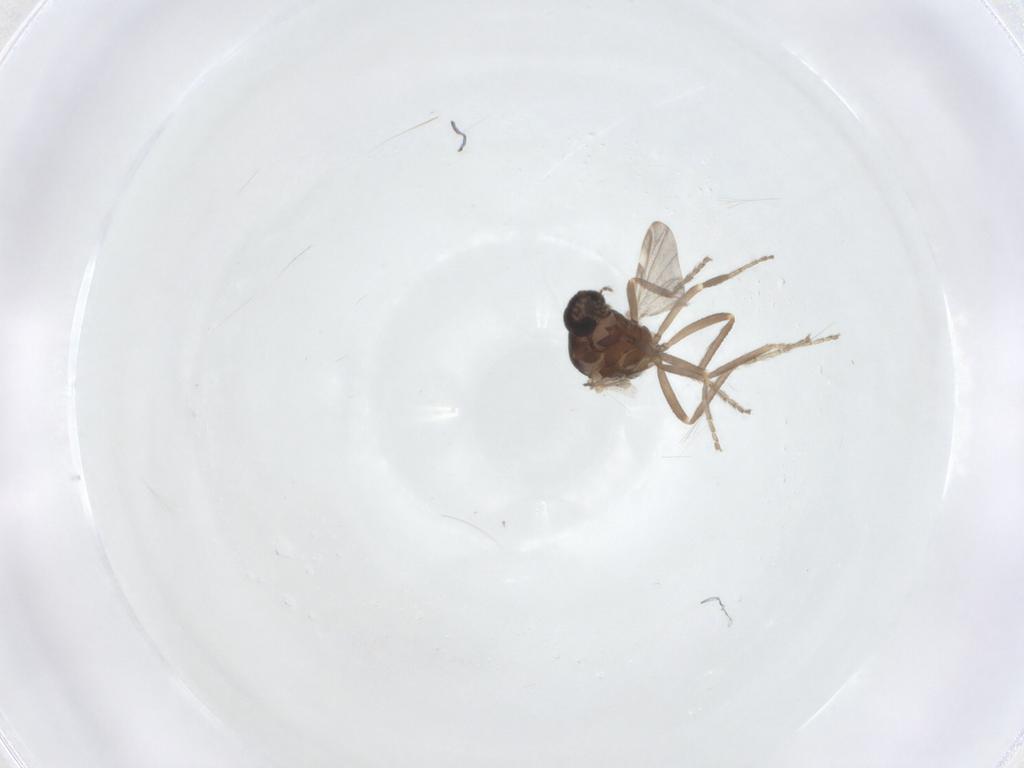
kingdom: Animalia
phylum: Arthropoda
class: Insecta
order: Diptera
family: Ceratopogonidae
